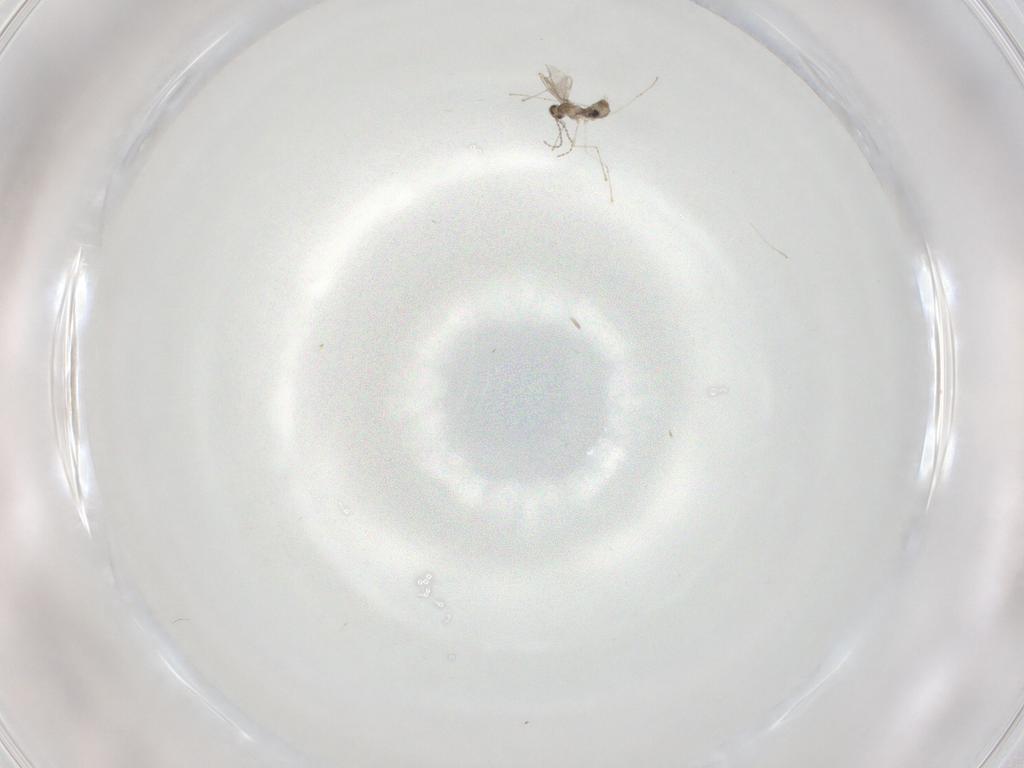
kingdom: Animalia
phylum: Arthropoda
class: Insecta
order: Diptera
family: Cecidomyiidae
